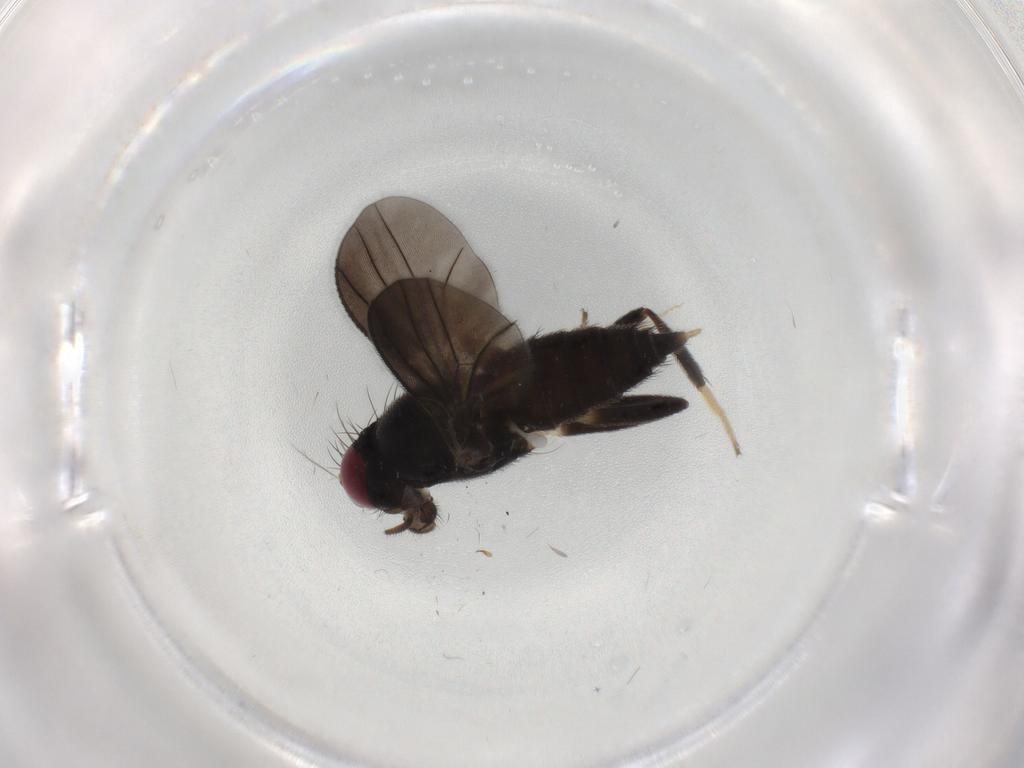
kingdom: Animalia
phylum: Arthropoda
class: Insecta
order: Diptera
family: Clusiidae
